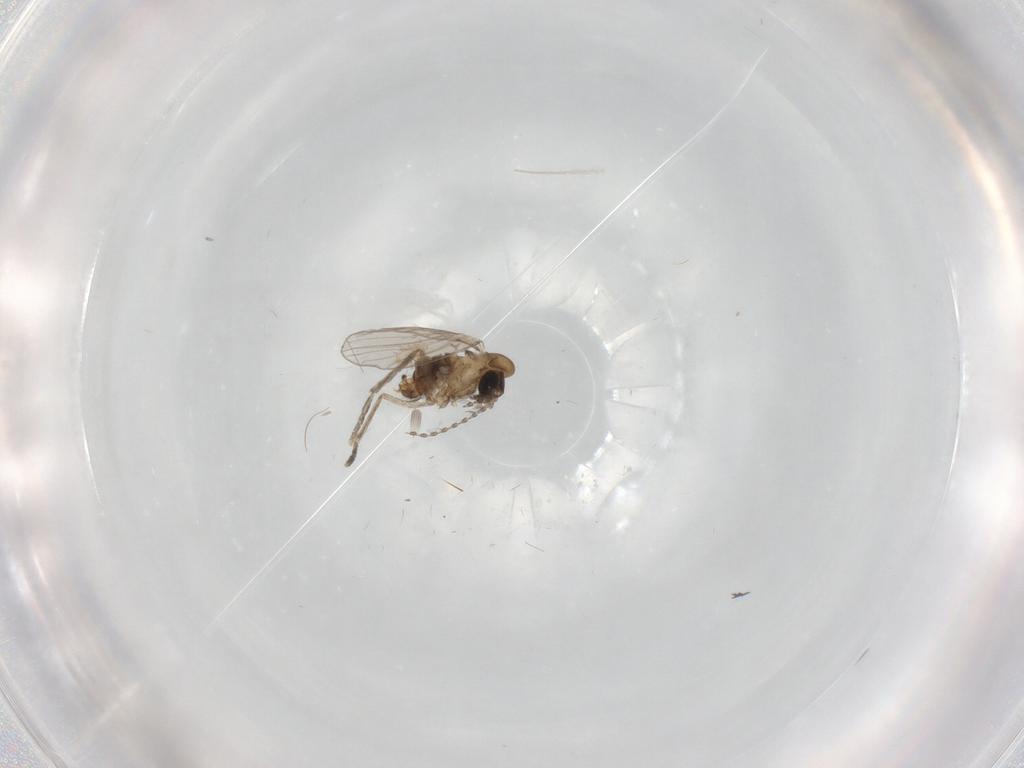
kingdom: Animalia
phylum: Arthropoda
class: Insecta
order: Diptera
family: Psychodidae
